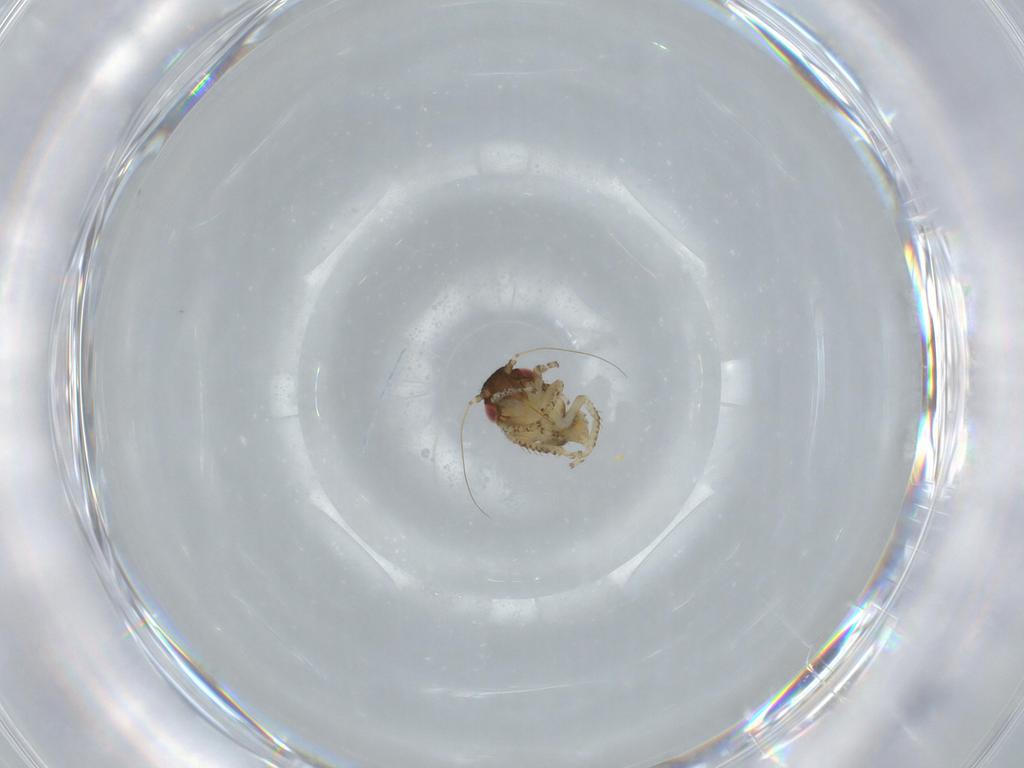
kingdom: Animalia
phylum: Arthropoda
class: Insecta
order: Hemiptera
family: Cicadellidae
